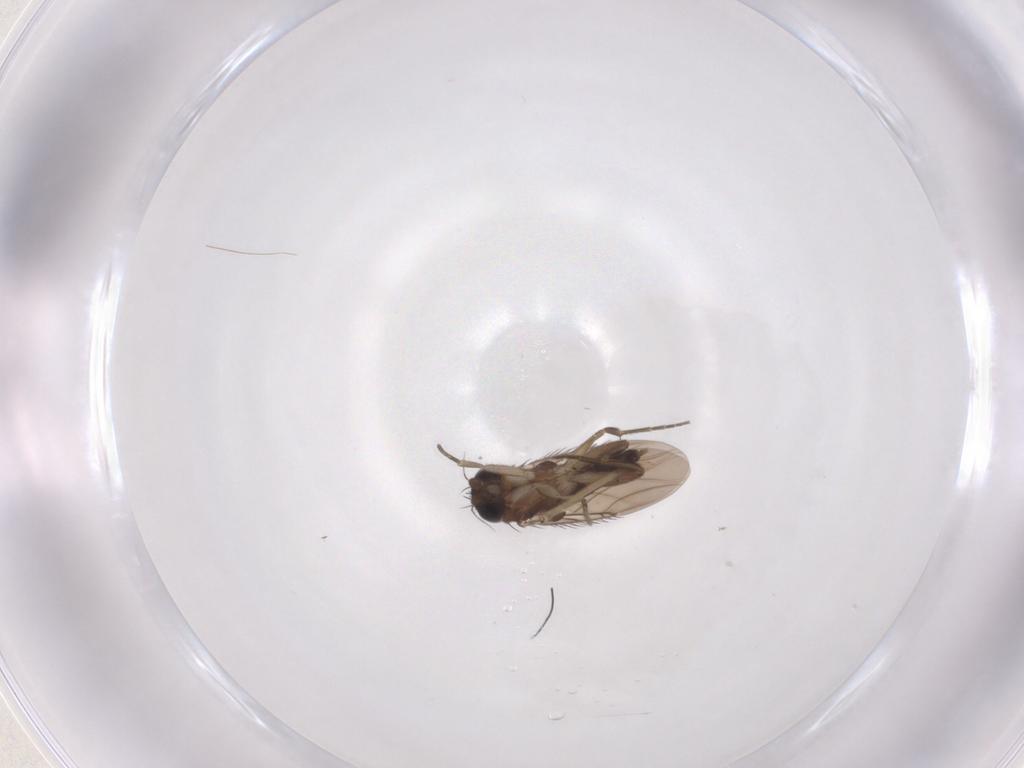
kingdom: Animalia
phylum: Arthropoda
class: Insecta
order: Diptera
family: Limoniidae
